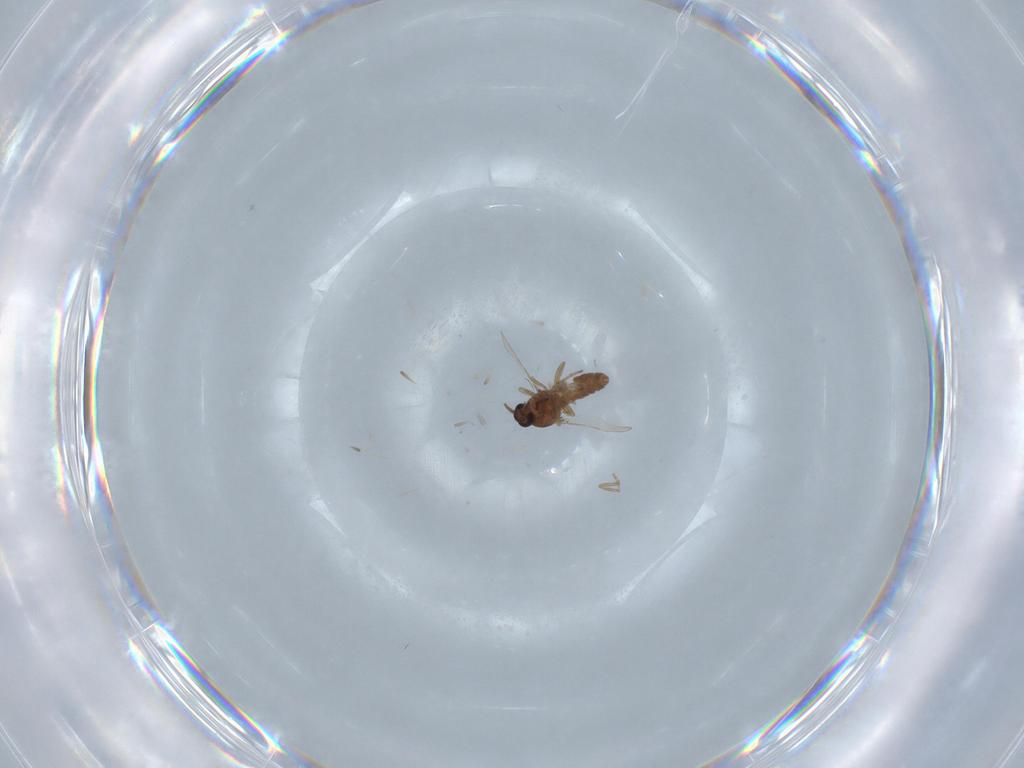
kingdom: Animalia
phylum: Arthropoda
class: Insecta
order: Diptera
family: Ceratopogonidae
